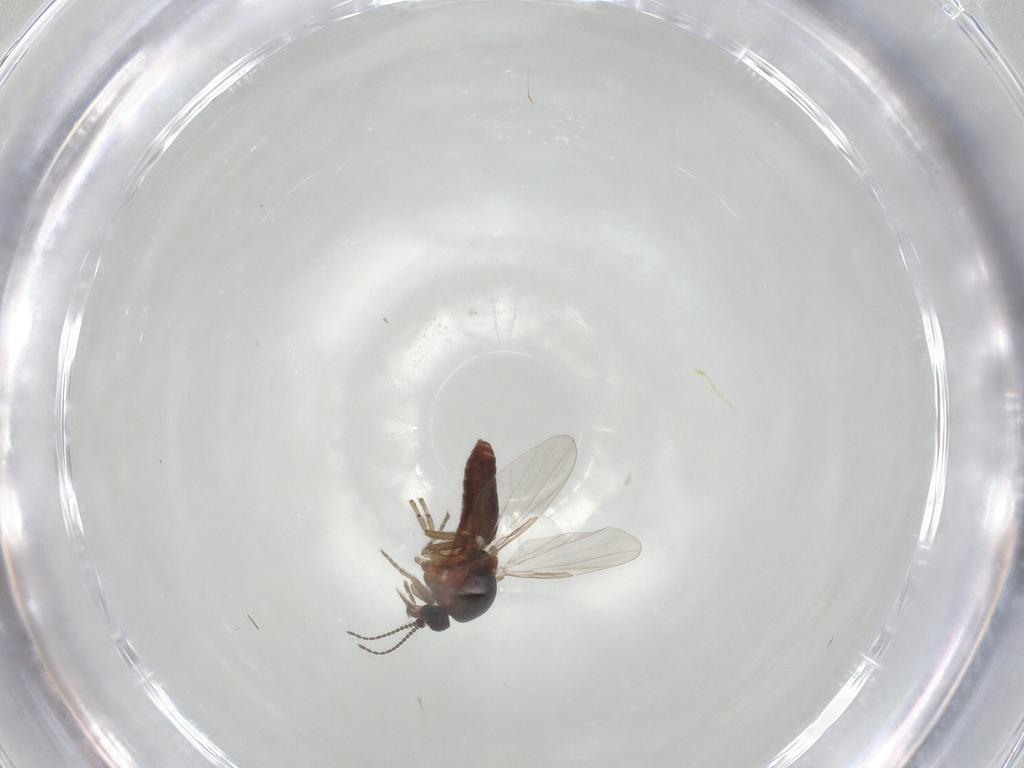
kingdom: Animalia
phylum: Arthropoda
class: Insecta
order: Diptera
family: Ceratopogonidae
